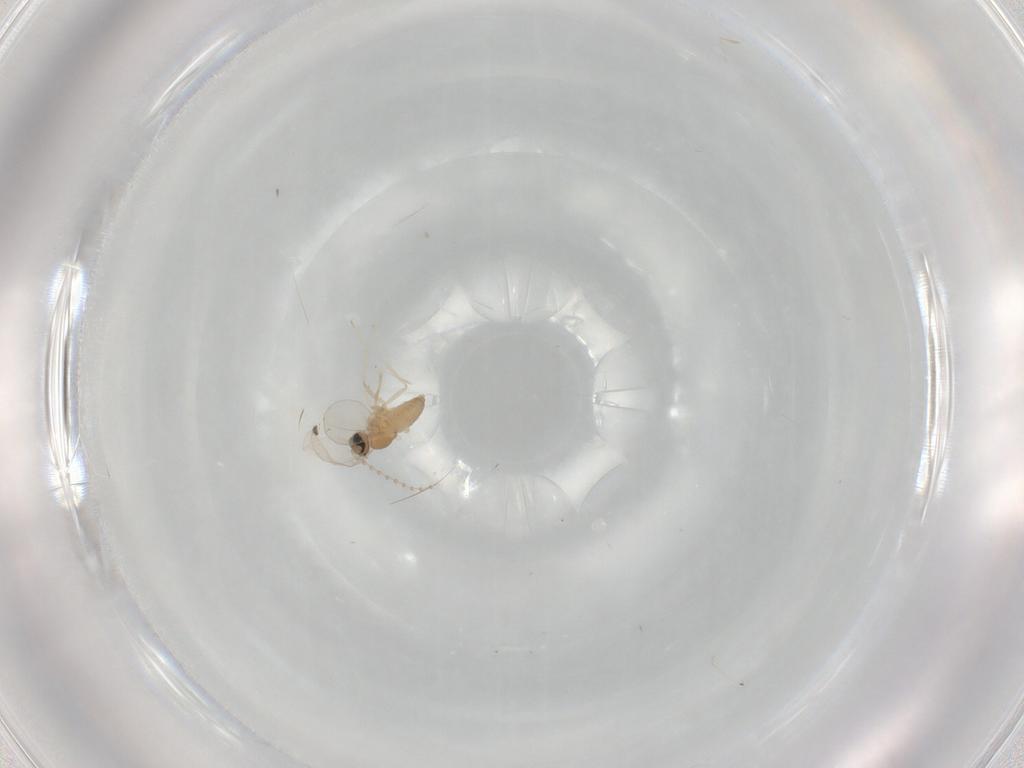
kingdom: Animalia
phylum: Arthropoda
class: Insecta
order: Diptera
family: Cecidomyiidae
